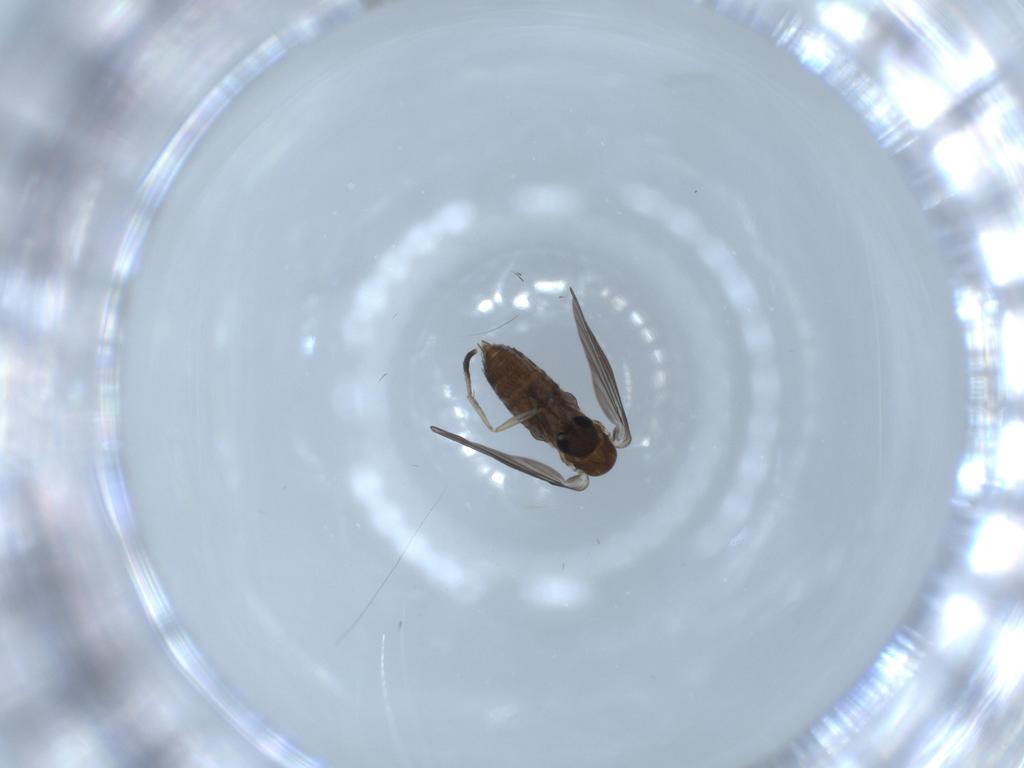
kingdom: Animalia
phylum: Arthropoda
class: Insecta
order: Diptera
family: Psychodidae
